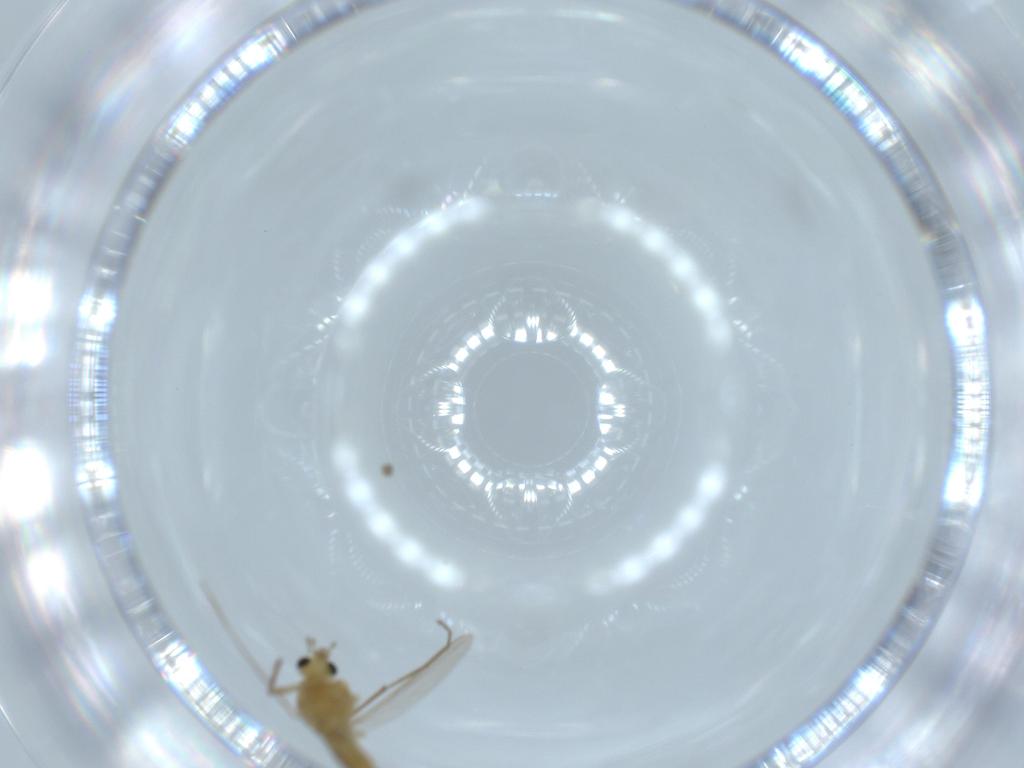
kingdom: Animalia
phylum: Arthropoda
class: Insecta
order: Diptera
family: Chironomidae
